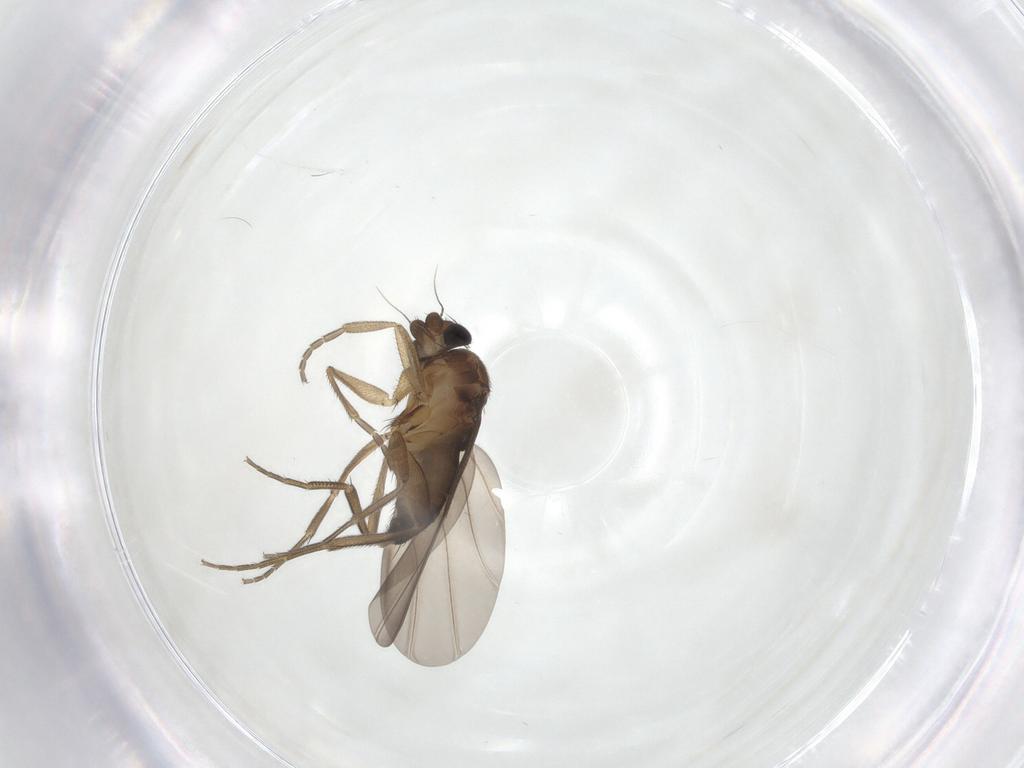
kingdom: Animalia
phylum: Arthropoda
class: Insecta
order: Diptera
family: Phoridae
